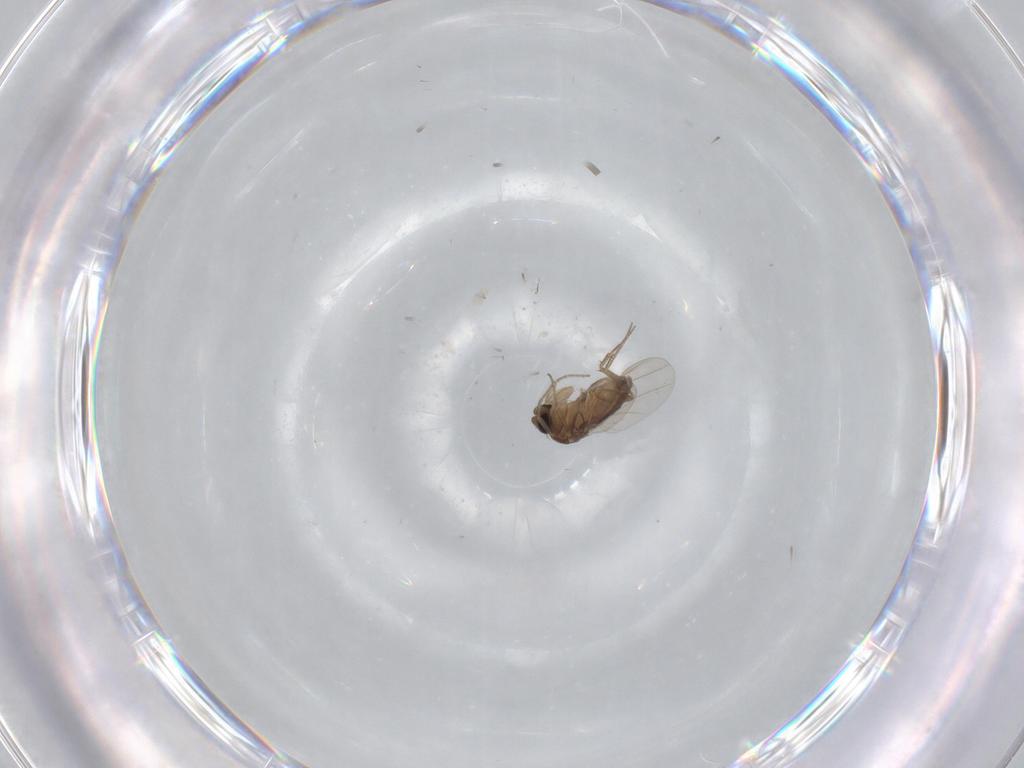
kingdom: Animalia
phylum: Arthropoda
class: Insecta
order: Diptera
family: Phoridae
